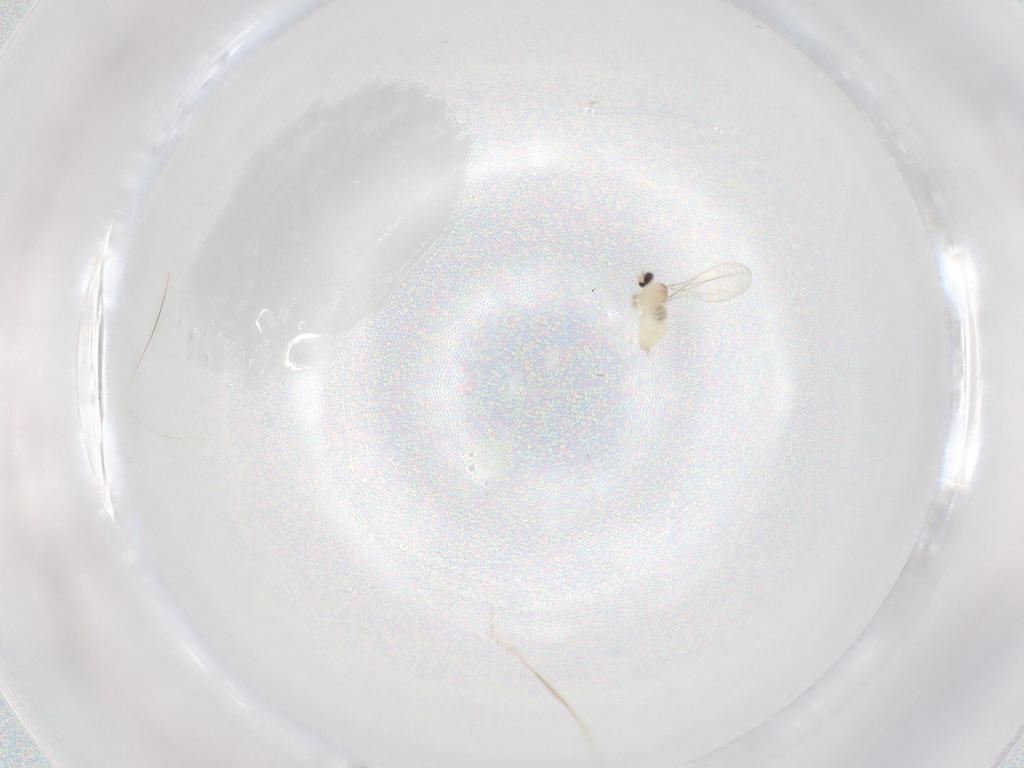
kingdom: Animalia
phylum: Arthropoda
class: Insecta
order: Diptera
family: Cecidomyiidae
